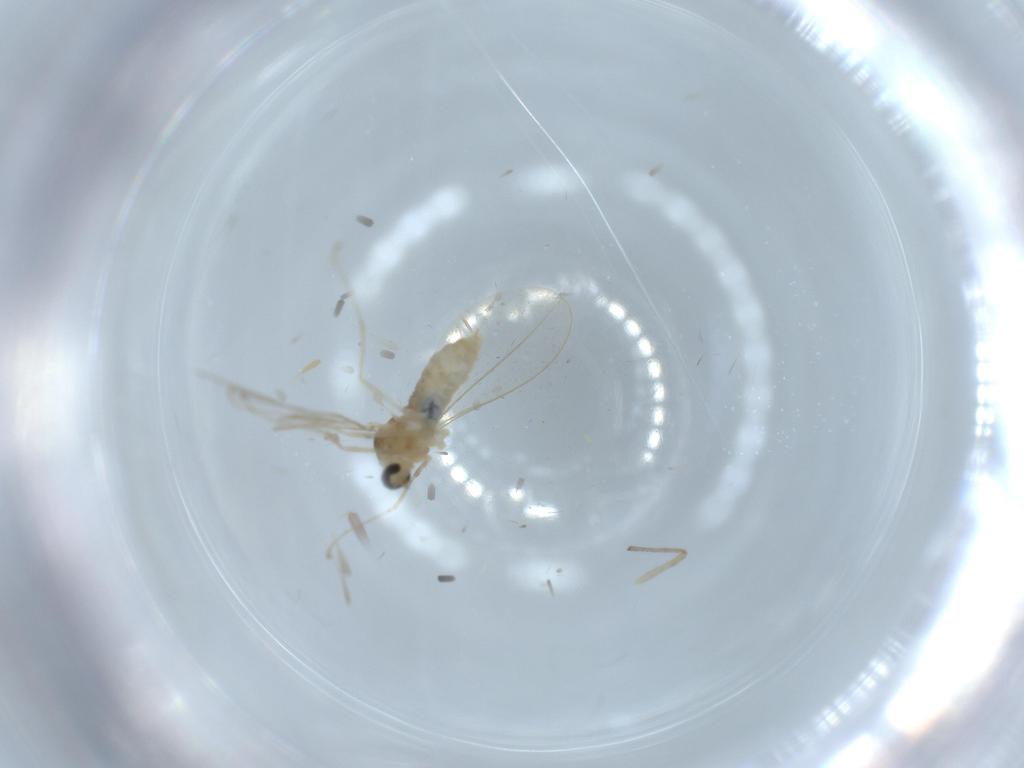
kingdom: Animalia
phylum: Arthropoda
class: Insecta
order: Diptera
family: Cecidomyiidae
